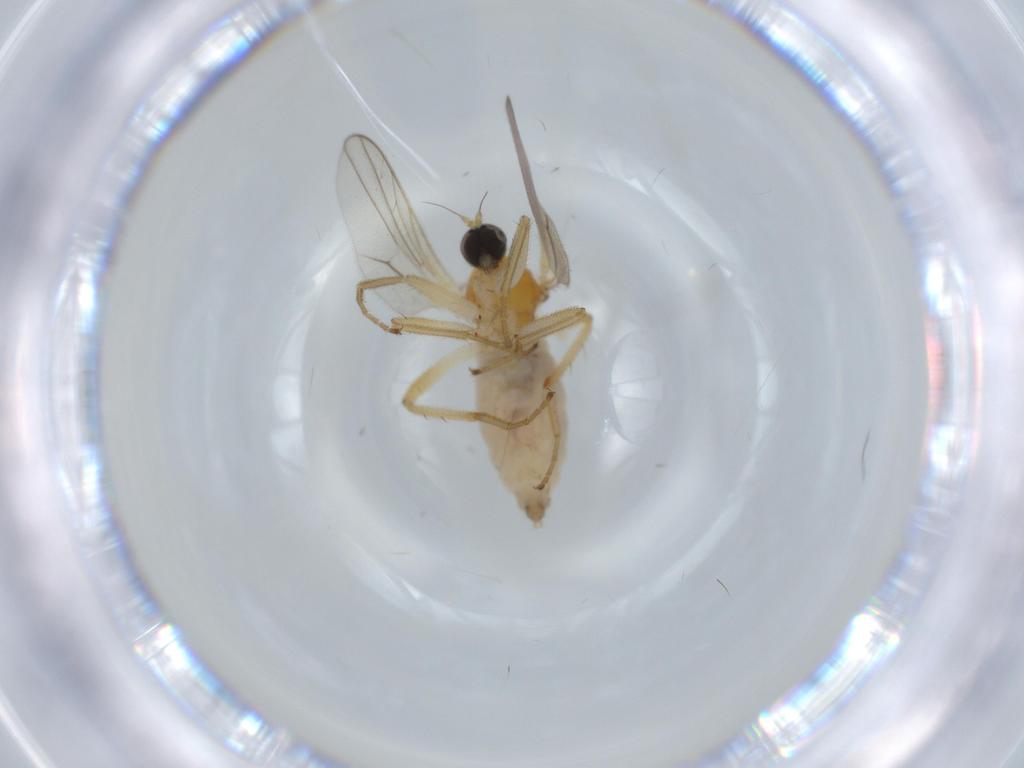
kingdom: Animalia
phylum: Arthropoda
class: Insecta
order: Diptera
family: Hybotidae
